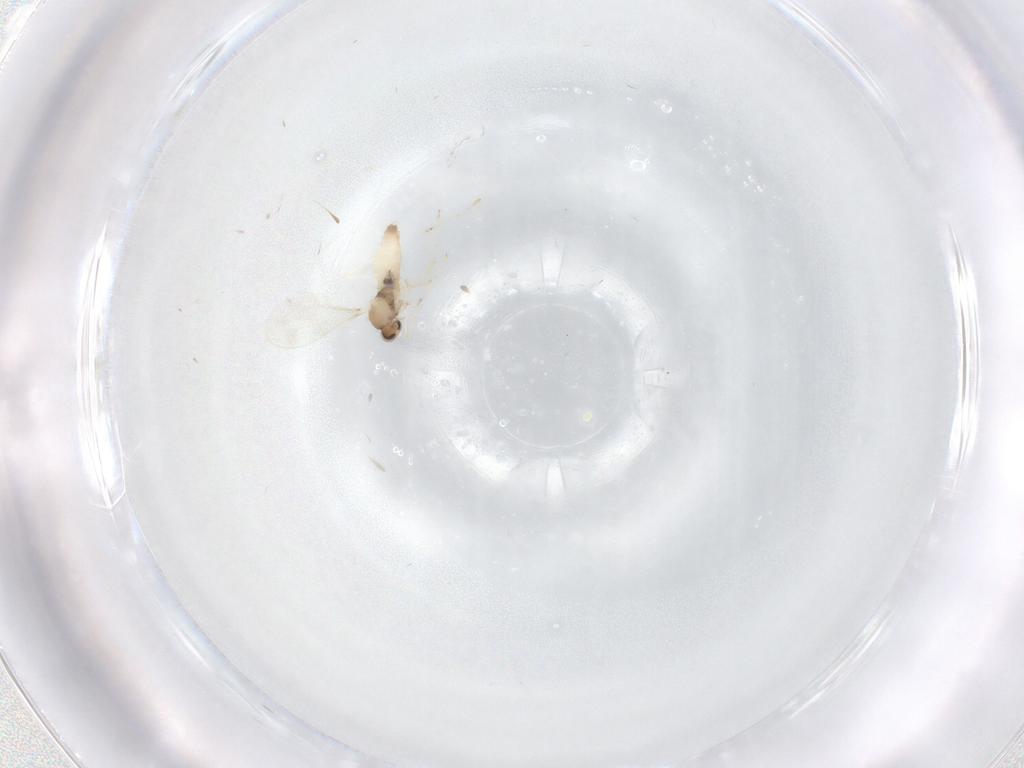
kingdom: Animalia
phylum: Arthropoda
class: Insecta
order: Diptera
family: Cecidomyiidae
